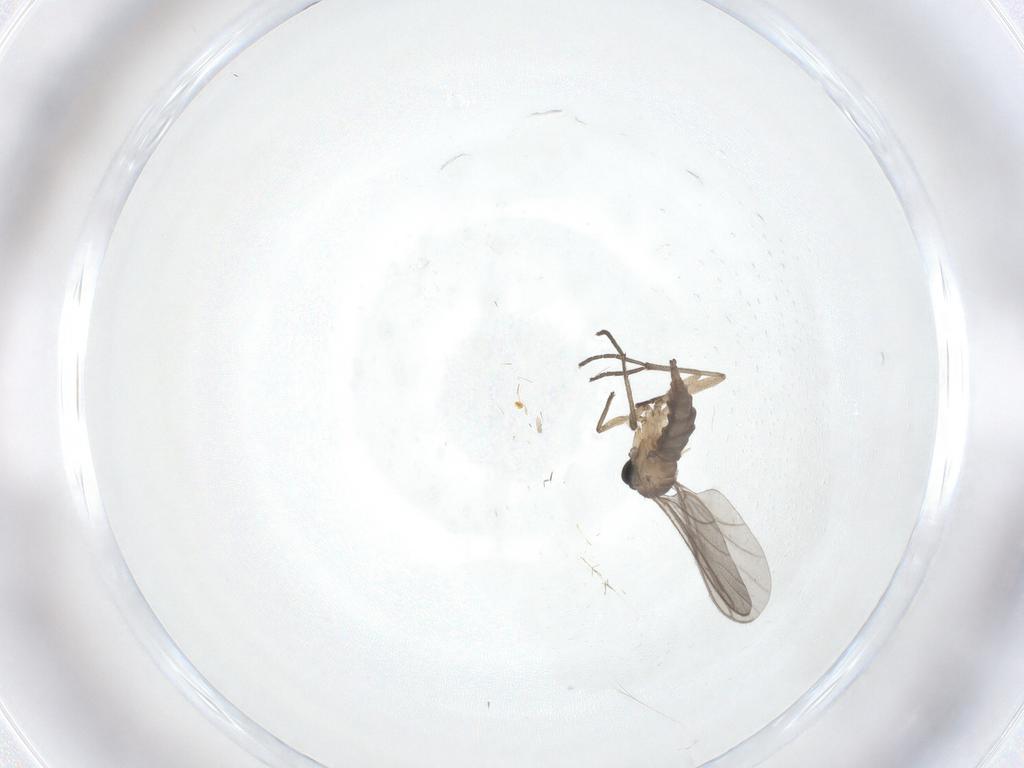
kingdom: Animalia
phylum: Arthropoda
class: Insecta
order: Diptera
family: Sciaridae
